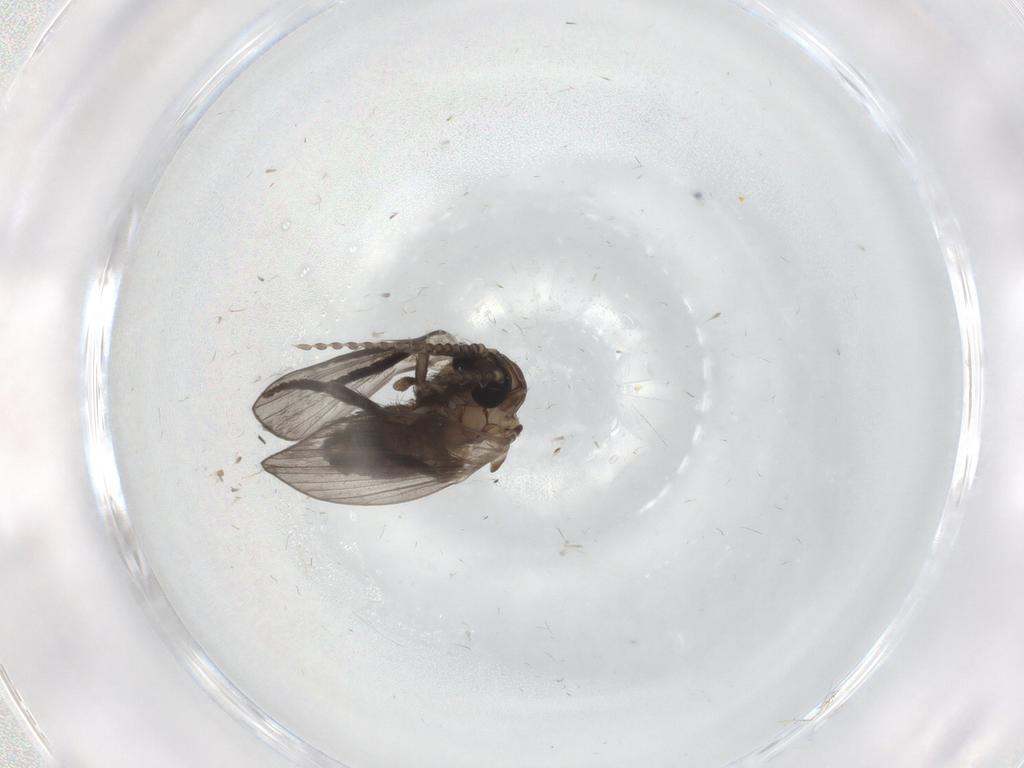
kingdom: Animalia
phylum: Arthropoda
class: Insecta
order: Diptera
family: Psychodidae
